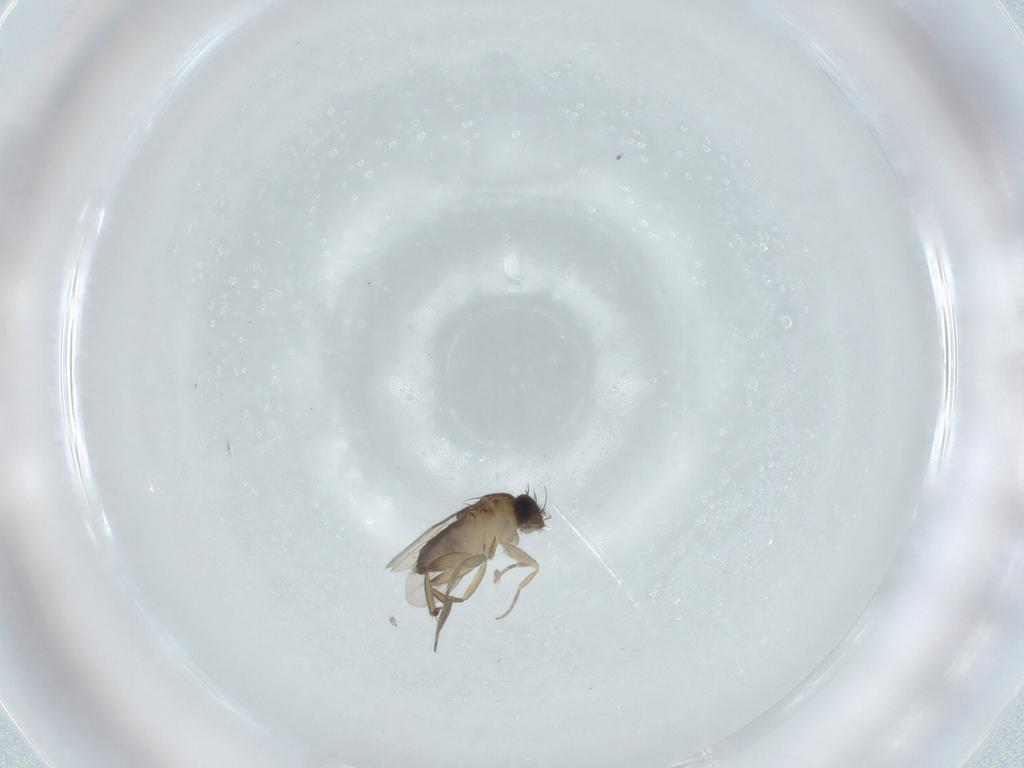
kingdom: Animalia
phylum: Arthropoda
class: Insecta
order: Diptera
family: Phoridae
